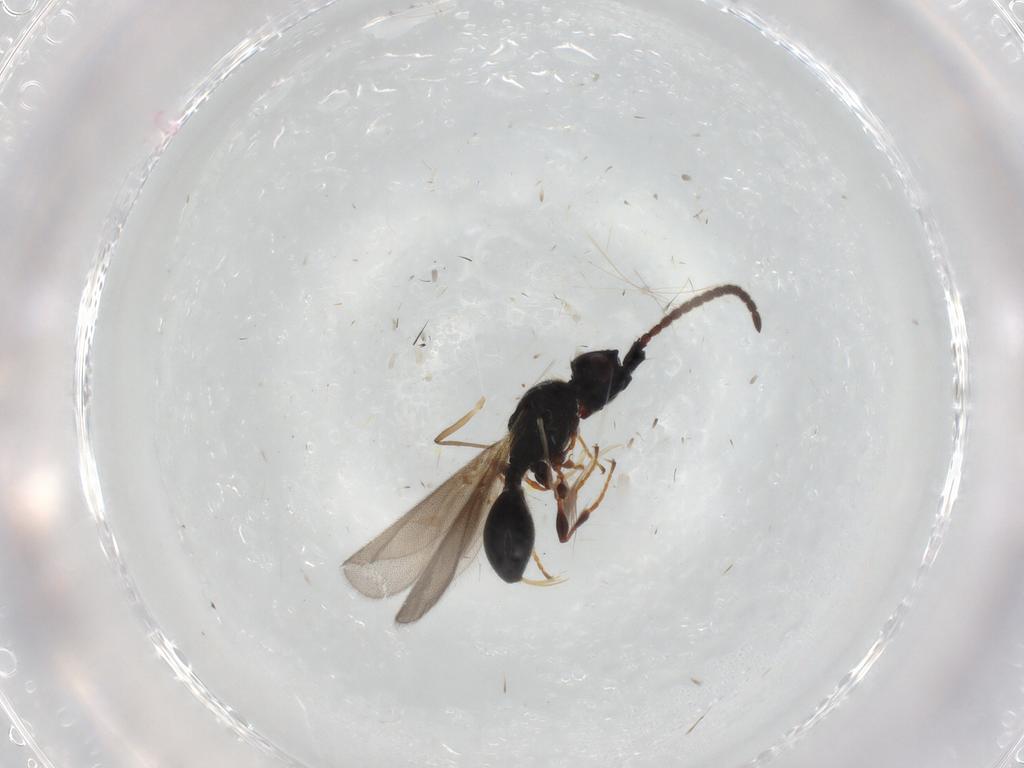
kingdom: Animalia
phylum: Arthropoda
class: Insecta
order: Hymenoptera
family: Diapriidae
